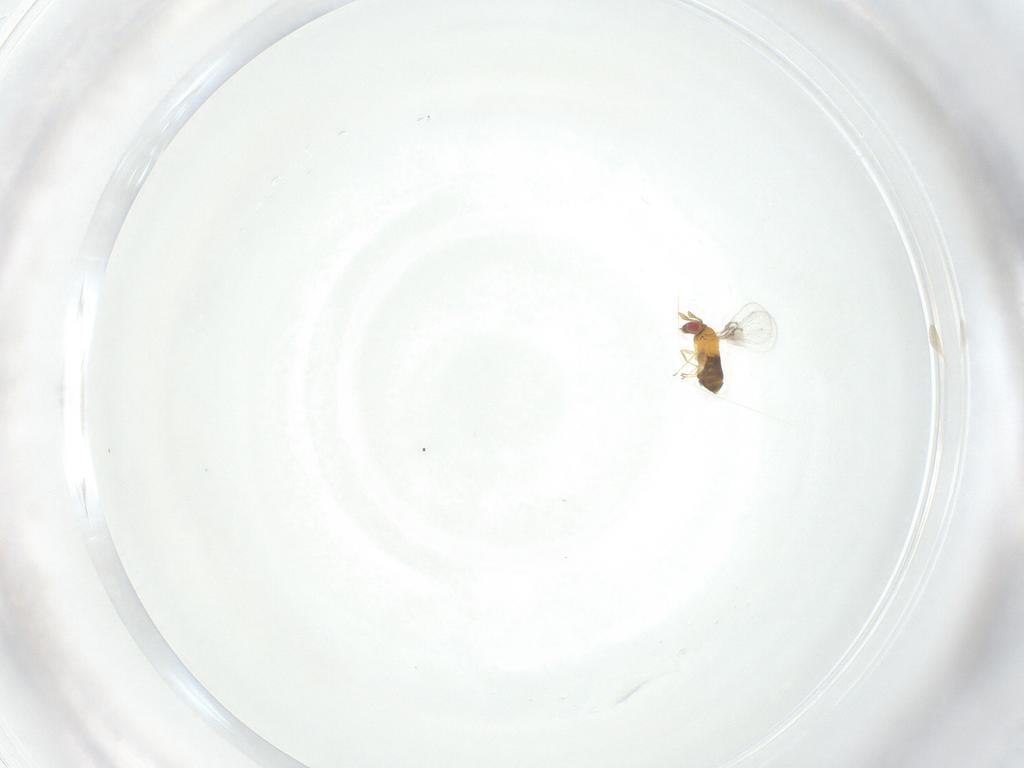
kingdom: Animalia
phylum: Arthropoda
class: Insecta
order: Hymenoptera
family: Trichogrammatidae
